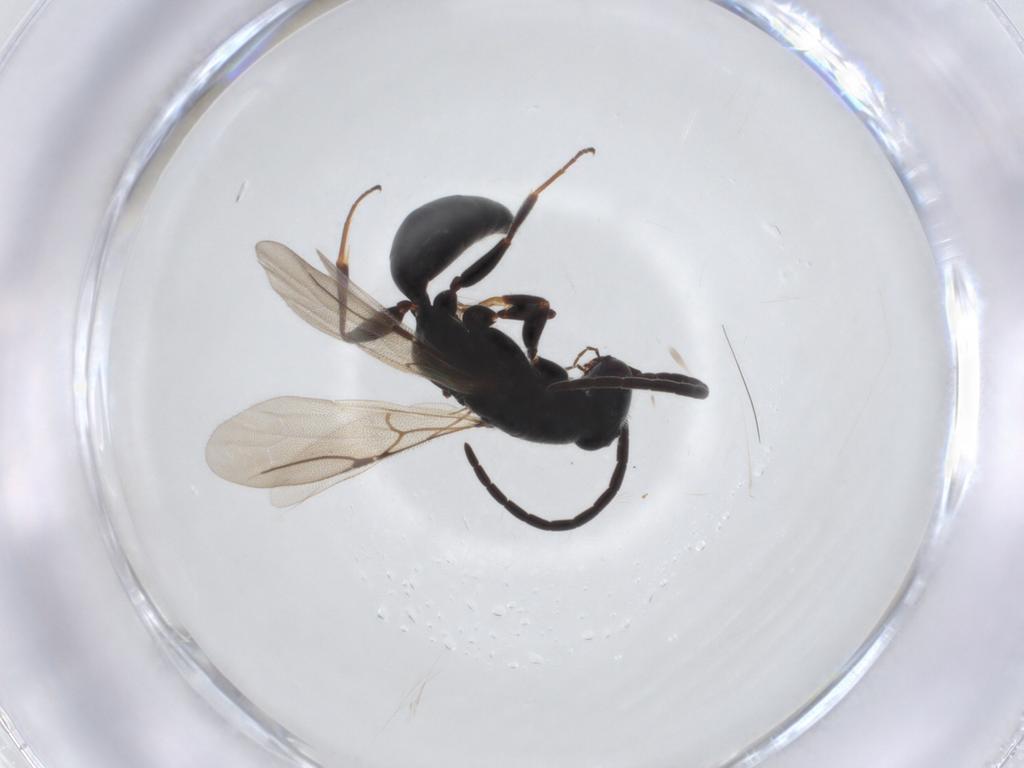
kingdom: Animalia
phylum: Arthropoda
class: Insecta
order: Hymenoptera
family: Bethylidae
